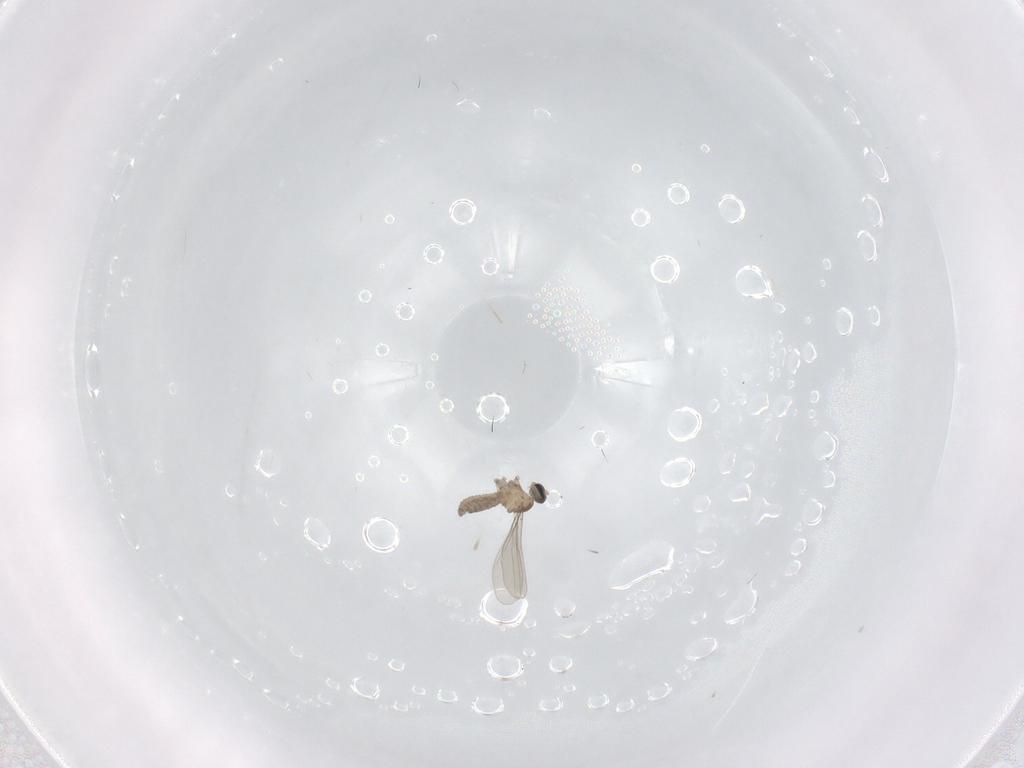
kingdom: Animalia
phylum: Arthropoda
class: Insecta
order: Diptera
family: Cecidomyiidae
